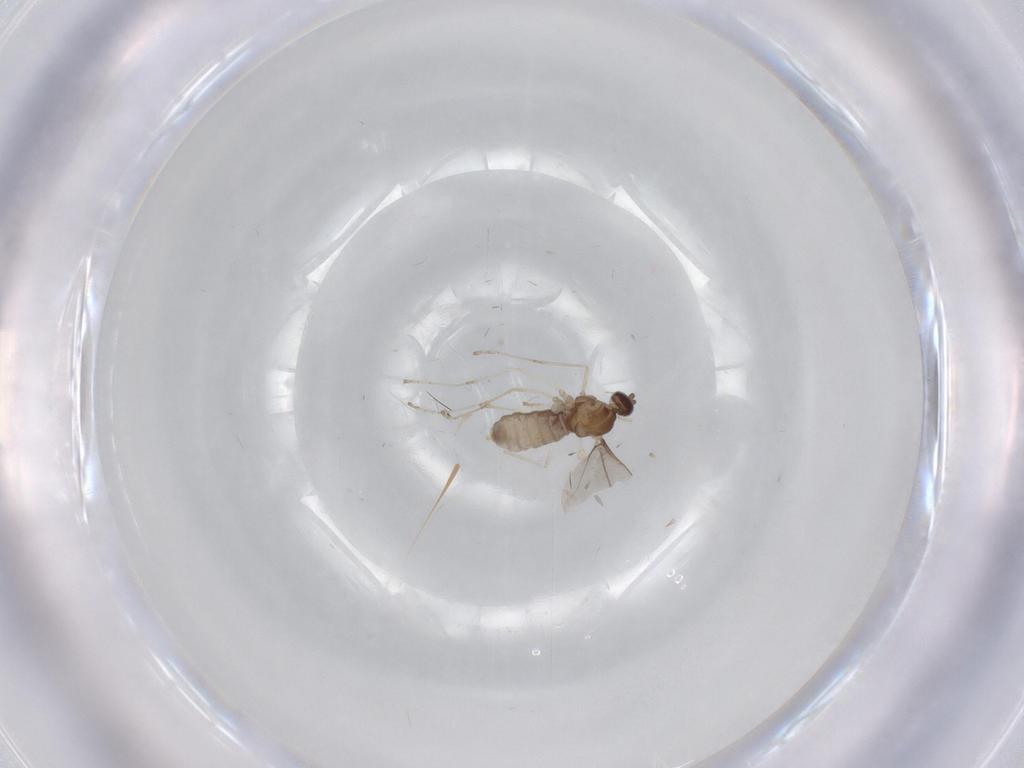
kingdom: Animalia
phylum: Arthropoda
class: Insecta
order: Diptera
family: Cecidomyiidae
